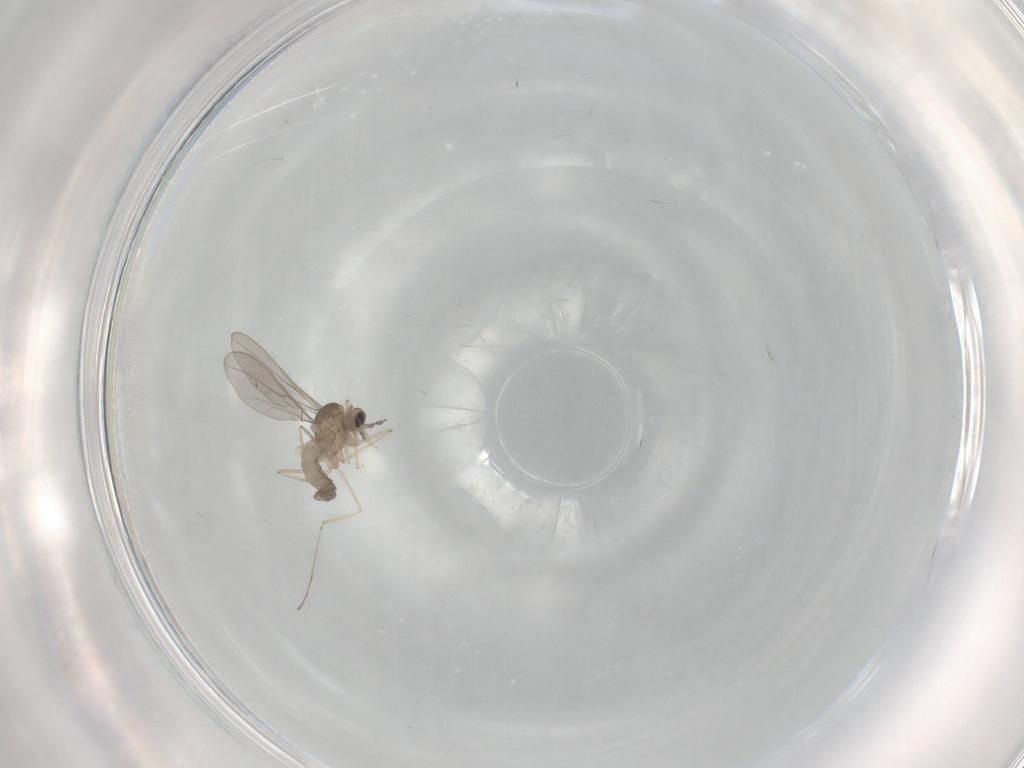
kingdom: Animalia
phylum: Arthropoda
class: Insecta
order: Diptera
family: Cecidomyiidae
